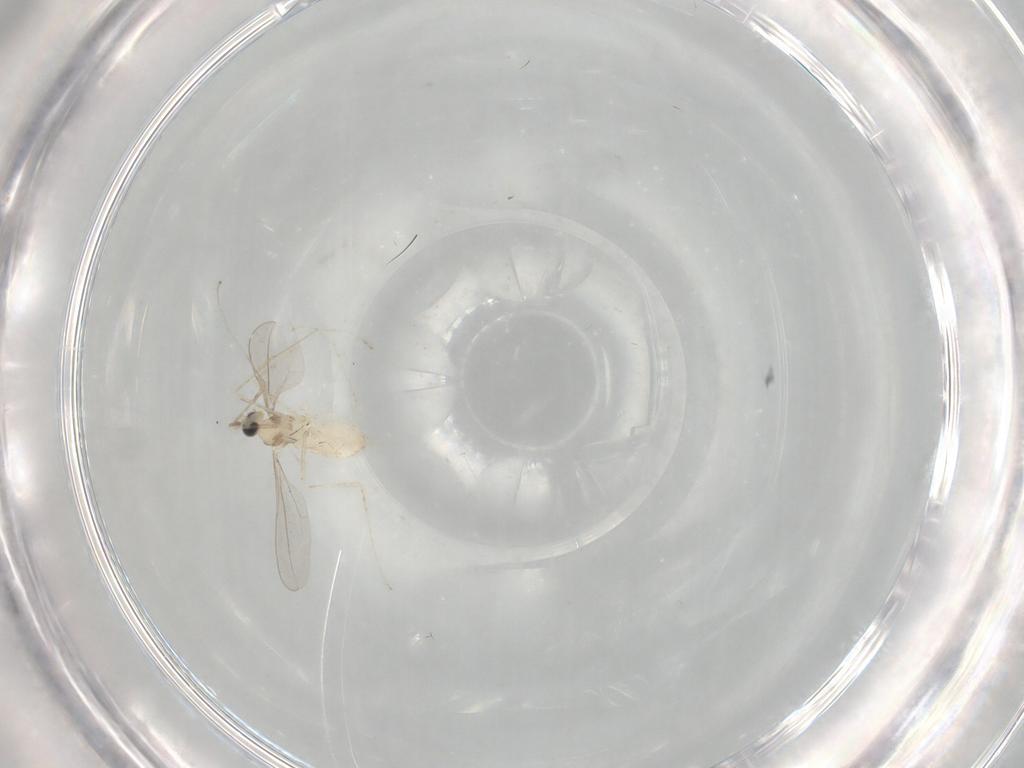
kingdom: Animalia
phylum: Arthropoda
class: Insecta
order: Diptera
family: Cecidomyiidae
